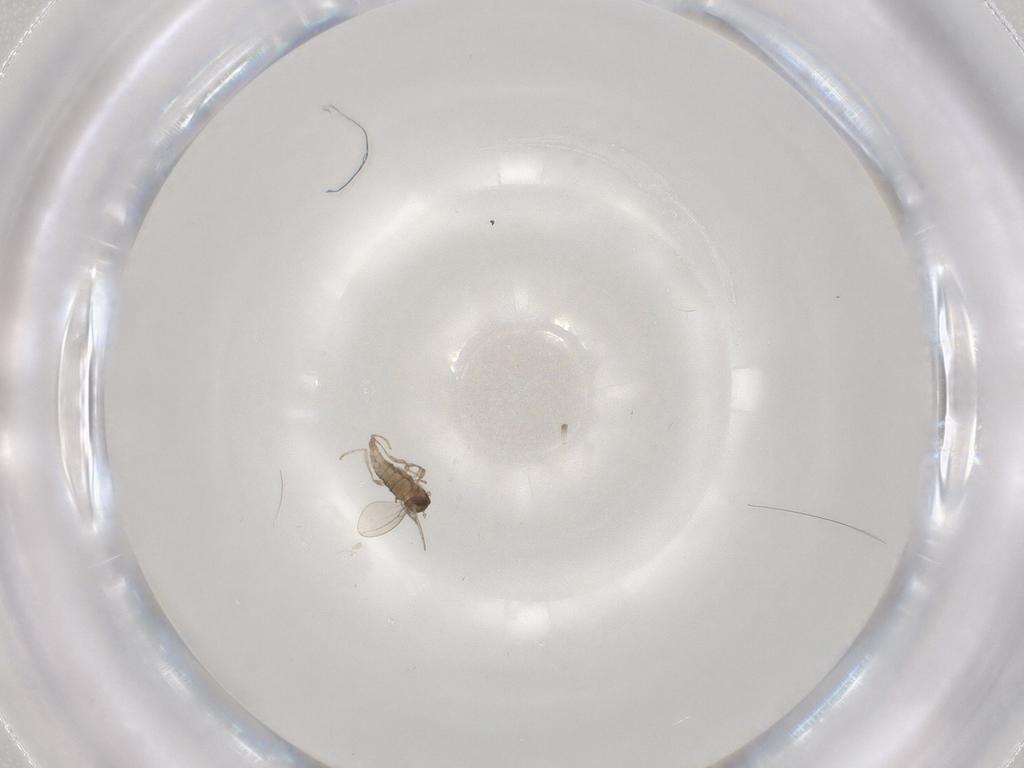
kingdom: Animalia
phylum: Arthropoda
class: Insecta
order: Diptera
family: Cecidomyiidae
